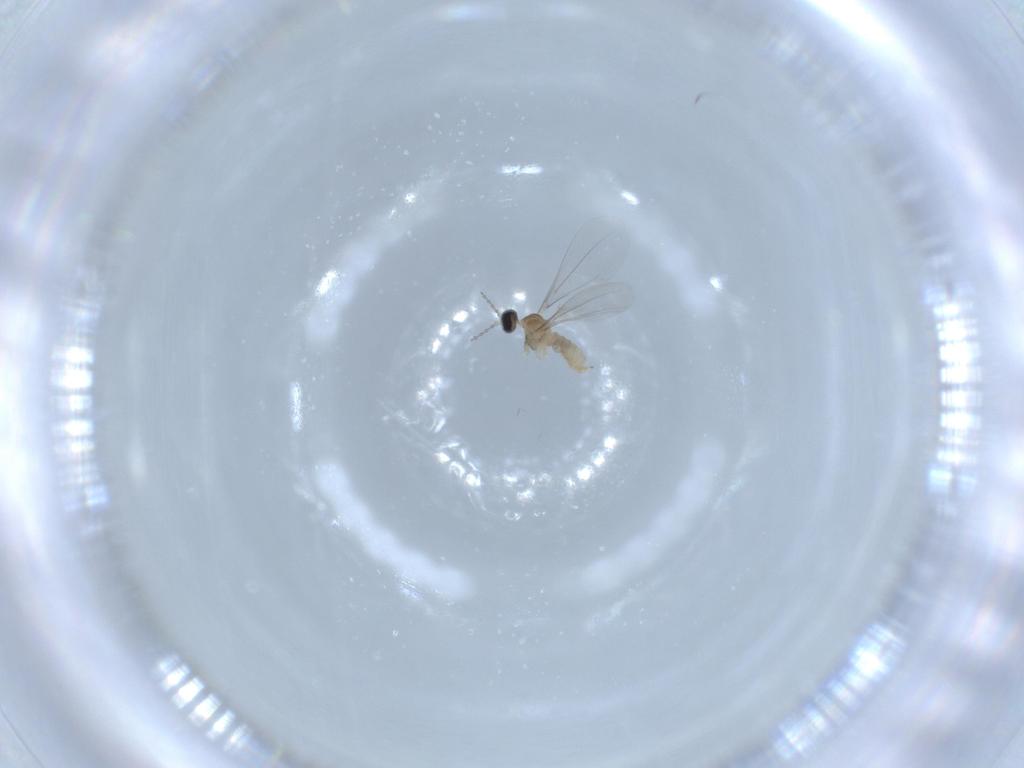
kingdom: Animalia
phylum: Arthropoda
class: Insecta
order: Diptera
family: Cecidomyiidae
